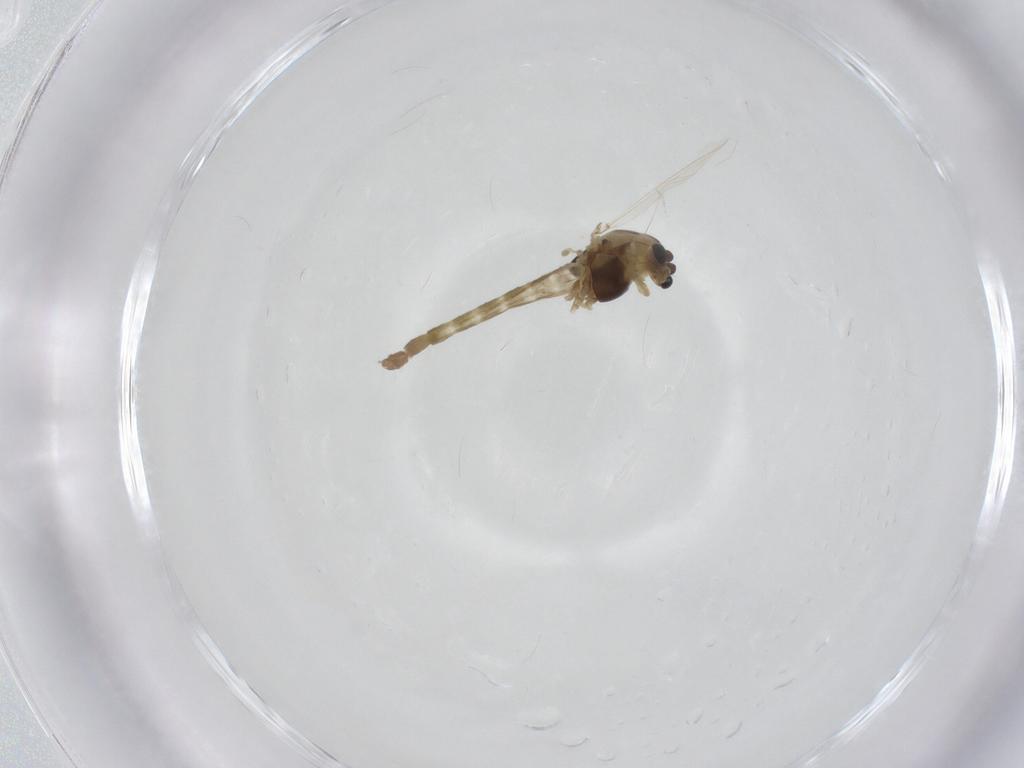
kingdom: Animalia
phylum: Arthropoda
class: Insecta
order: Diptera
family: Chironomidae
